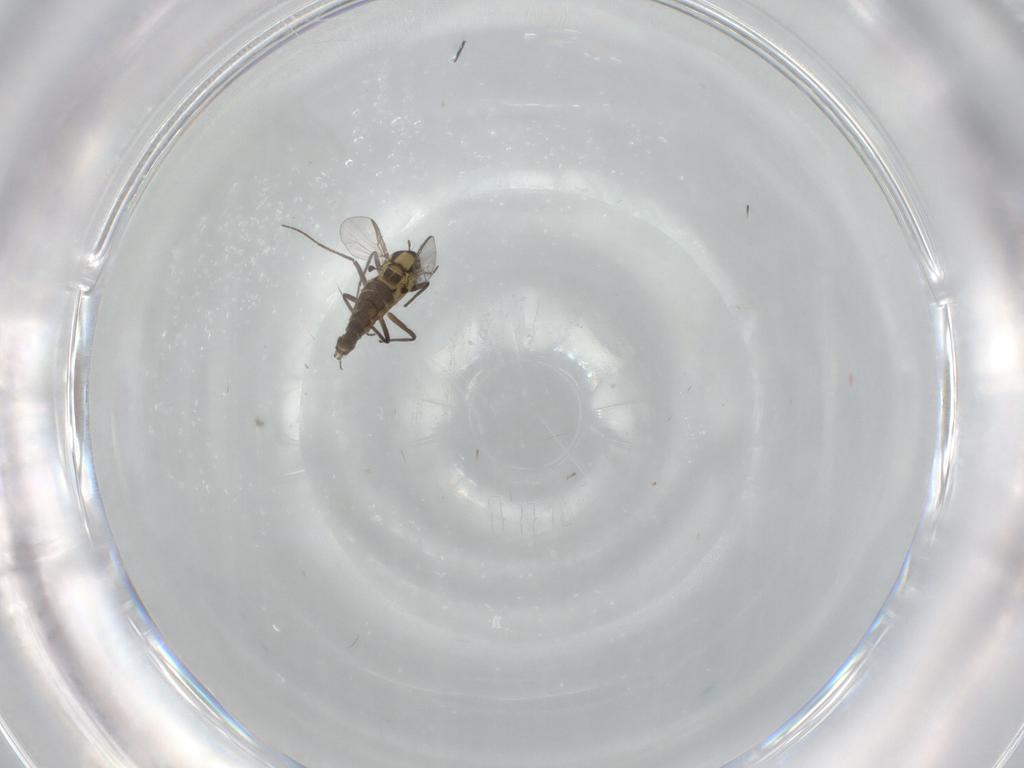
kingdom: Animalia
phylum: Arthropoda
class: Insecta
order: Diptera
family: Chironomidae
